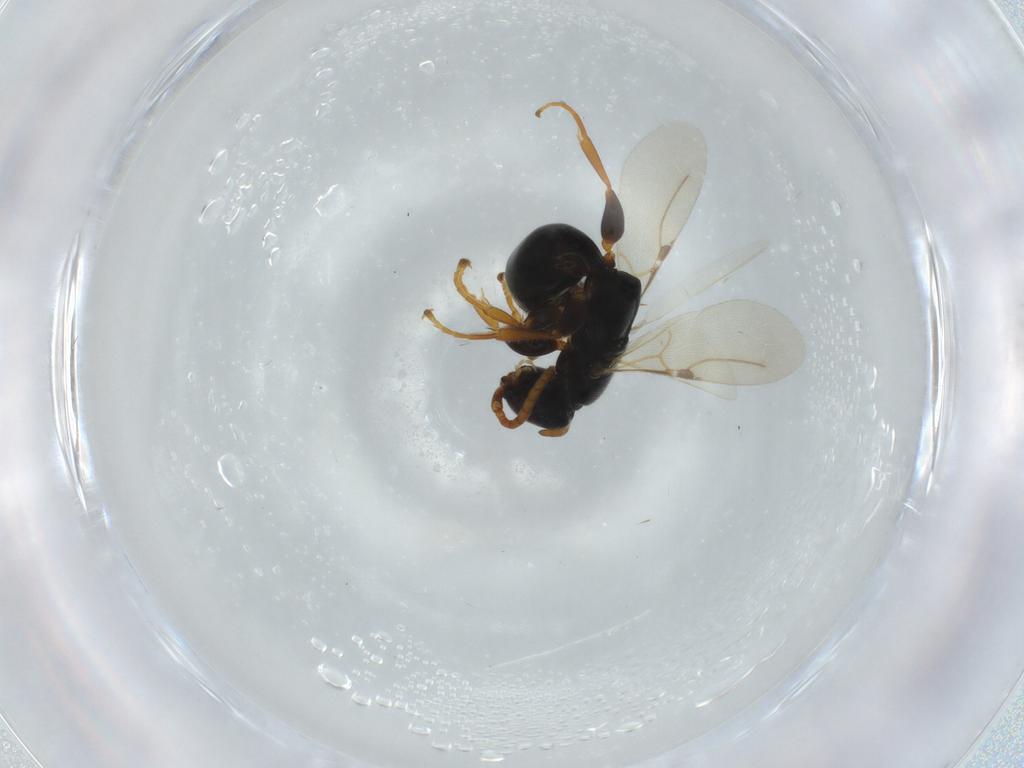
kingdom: Animalia
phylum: Arthropoda
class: Insecta
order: Hymenoptera
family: Bethylidae
